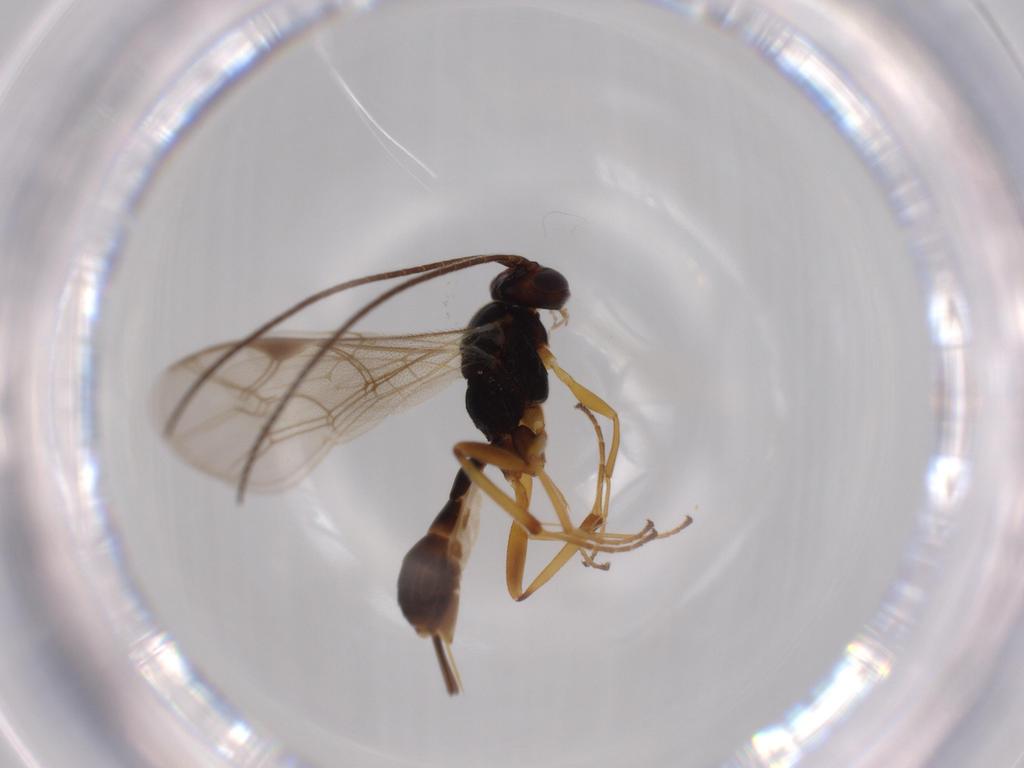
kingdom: Animalia
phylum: Arthropoda
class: Insecta
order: Hymenoptera
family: Ichneumonidae
